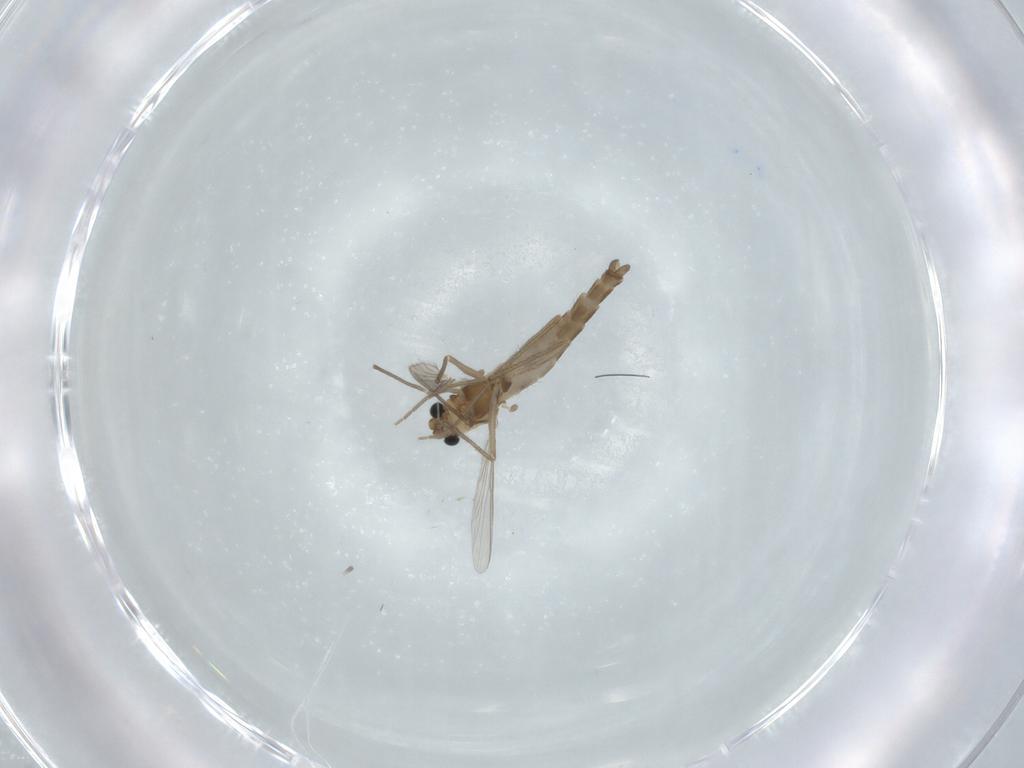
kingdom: Animalia
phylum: Arthropoda
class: Insecta
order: Diptera
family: Chironomidae
